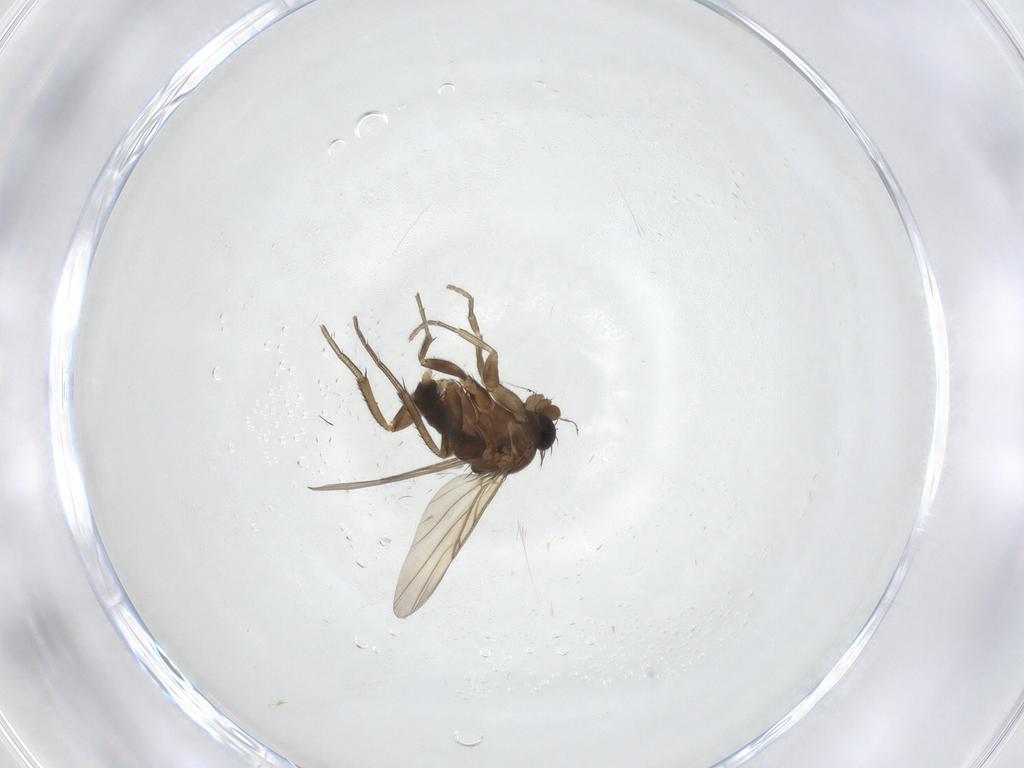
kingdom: Animalia
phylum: Arthropoda
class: Insecta
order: Diptera
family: Phoridae
